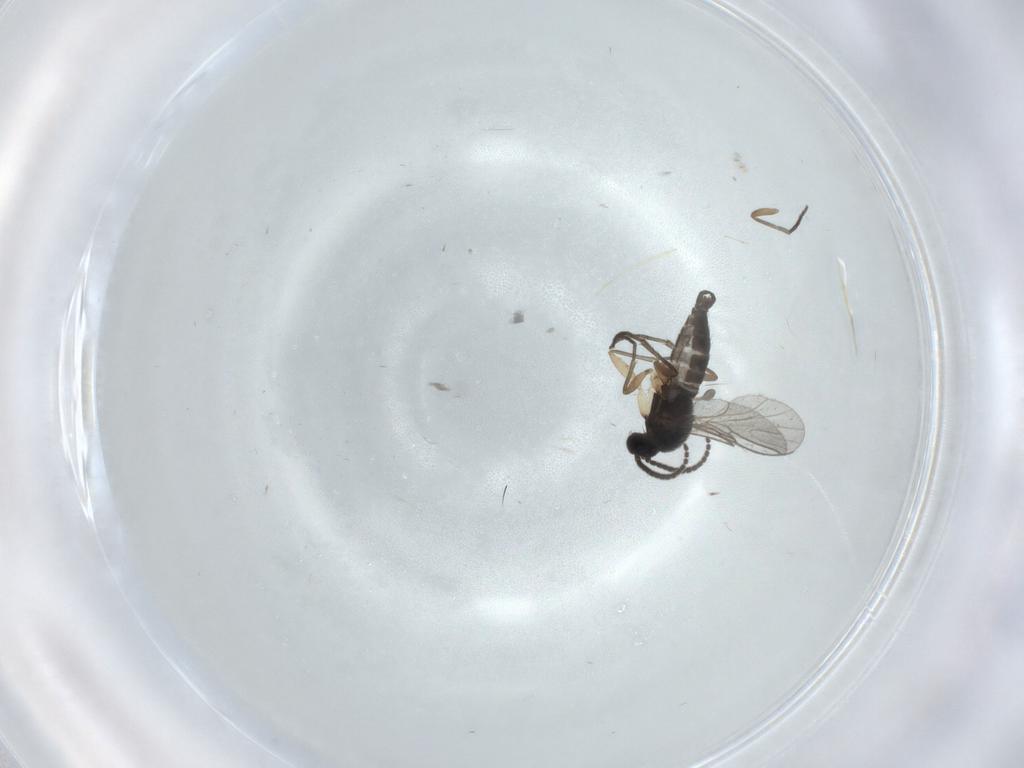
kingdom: Animalia
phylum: Arthropoda
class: Insecta
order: Diptera
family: Sciaridae
